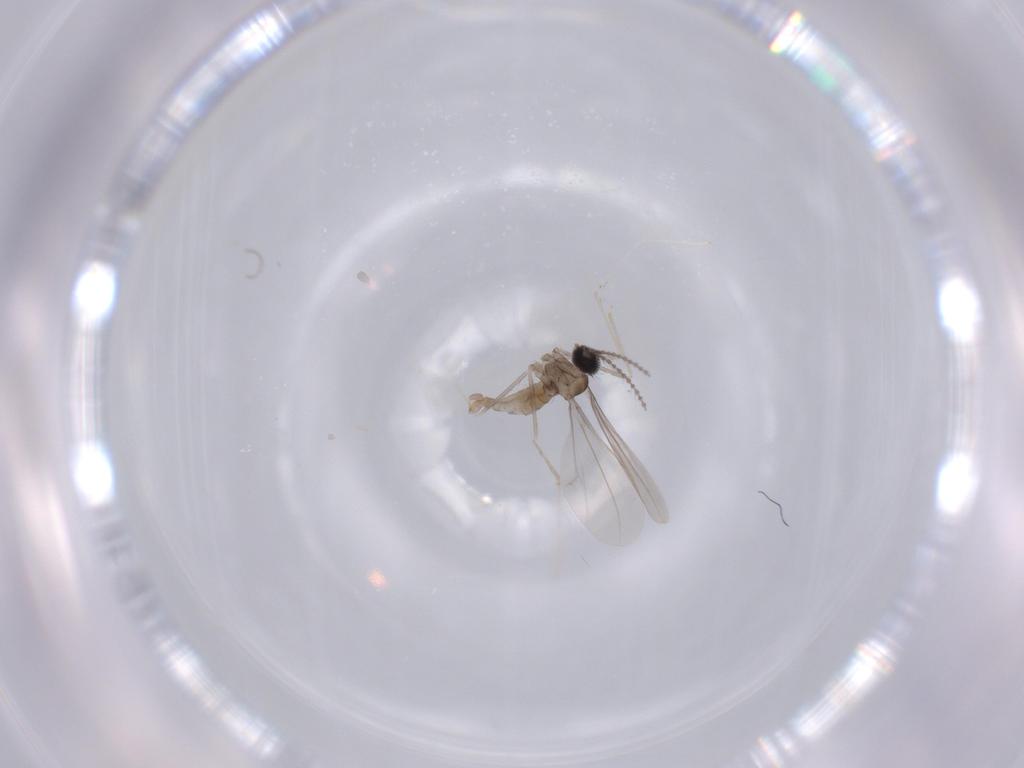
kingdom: Animalia
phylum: Arthropoda
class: Insecta
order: Diptera
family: Cecidomyiidae
